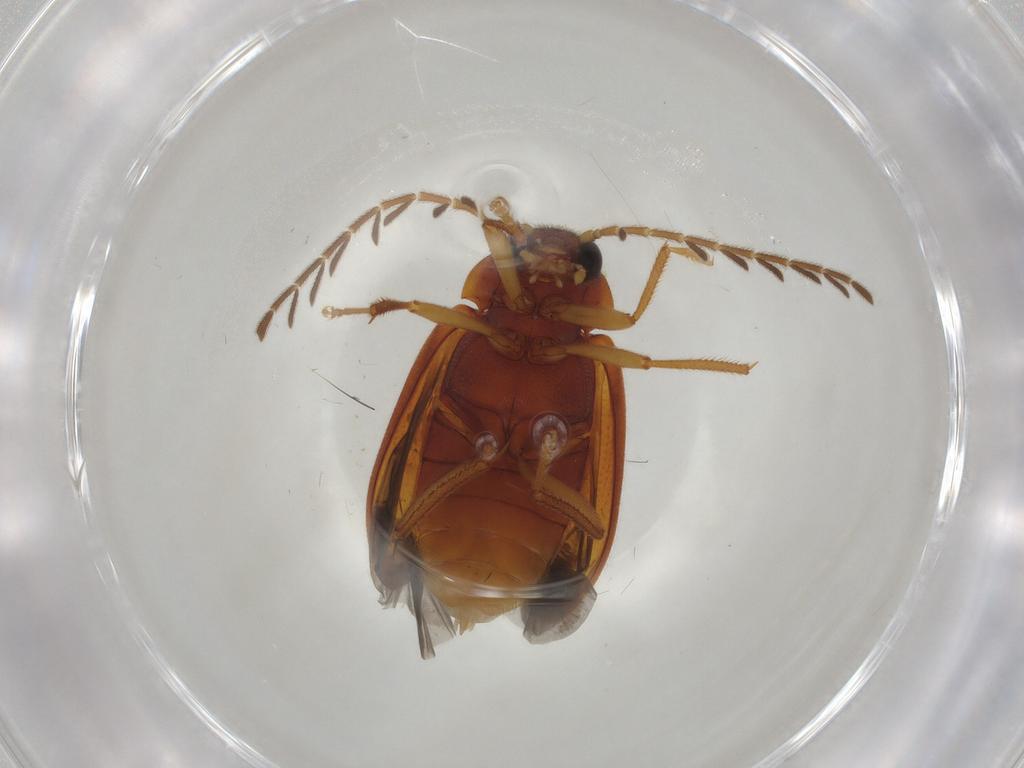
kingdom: Animalia
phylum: Arthropoda
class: Insecta
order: Coleoptera
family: Ptilodactylidae
